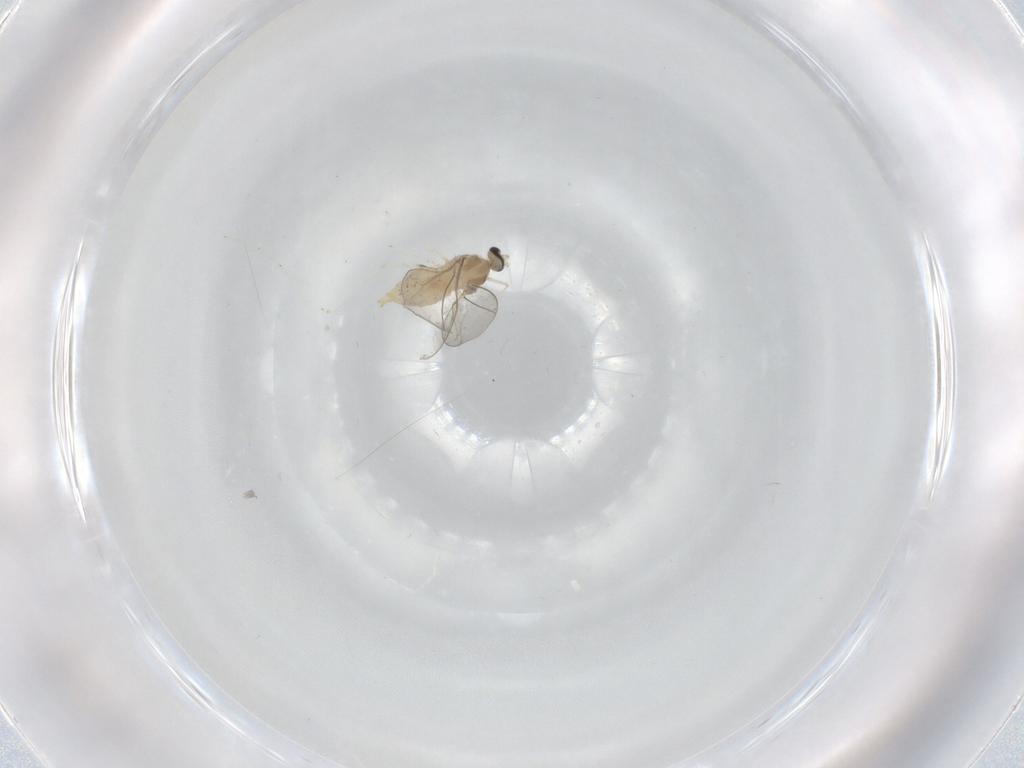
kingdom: Animalia
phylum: Arthropoda
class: Insecta
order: Diptera
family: Cecidomyiidae
